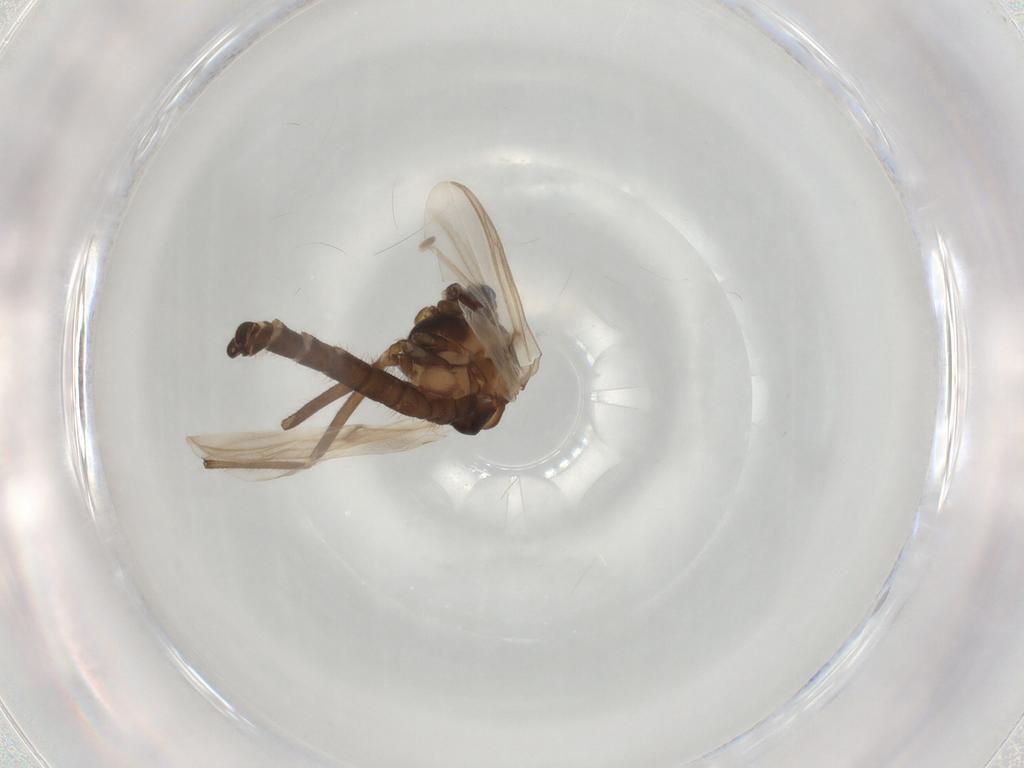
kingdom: Animalia
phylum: Arthropoda
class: Insecta
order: Diptera
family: Chironomidae
